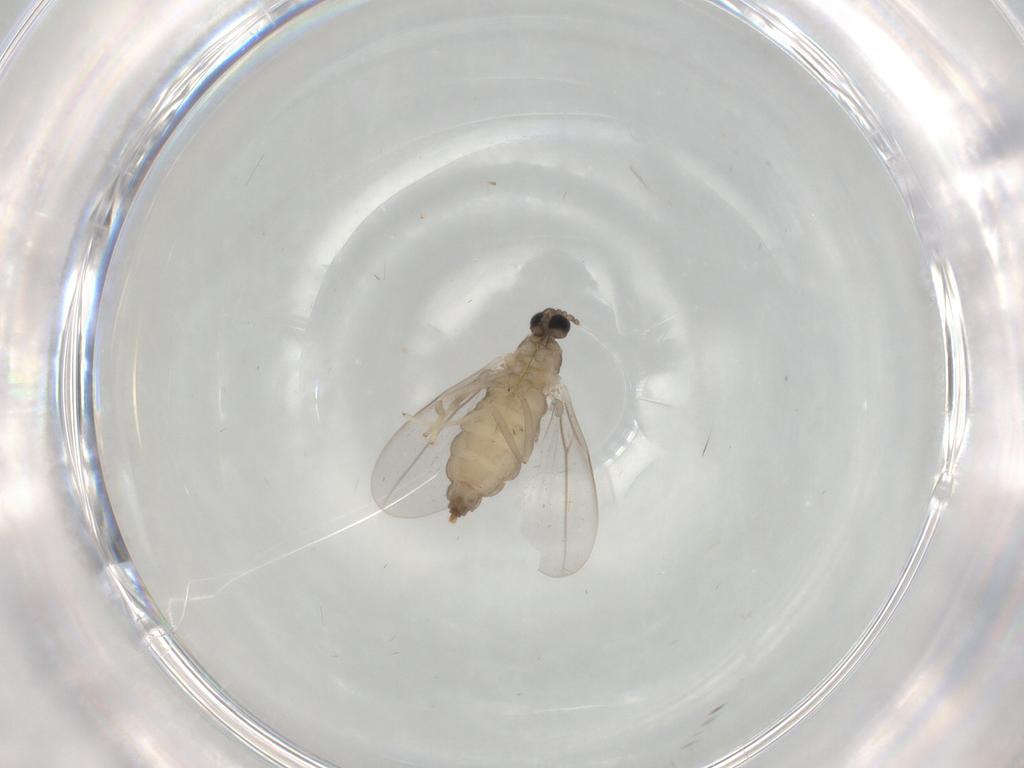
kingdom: Animalia
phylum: Arthropoda
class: Insecta
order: Diptera
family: Cecidomyiidae
